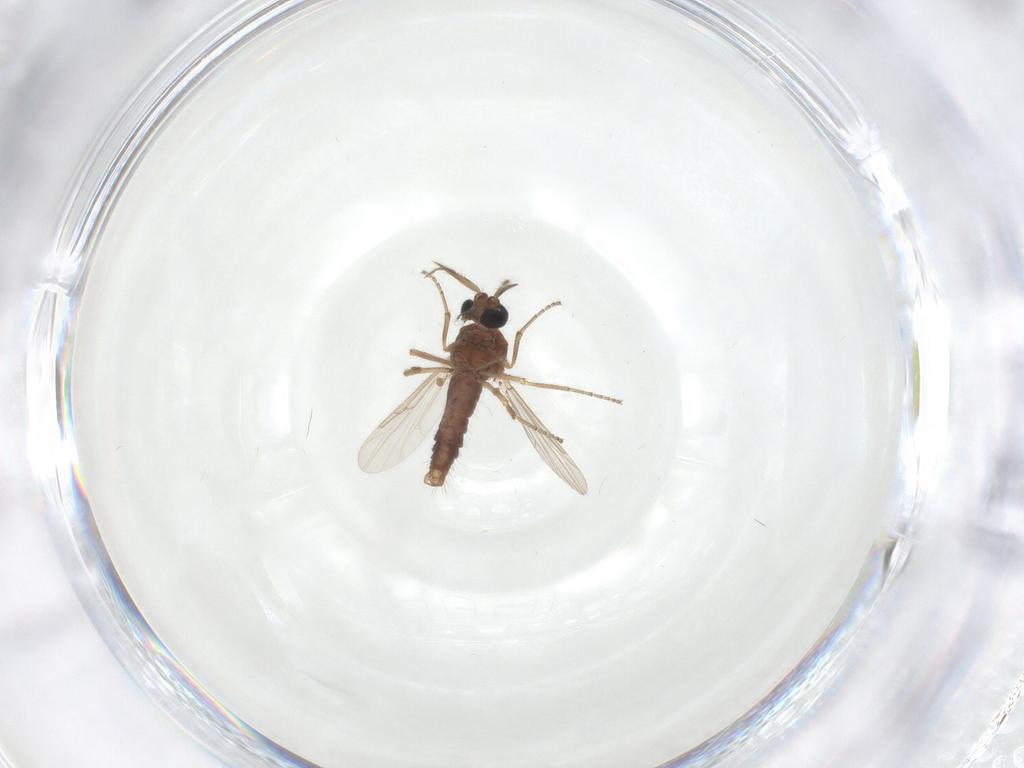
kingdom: Animalia
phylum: Arthropoda
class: Insecta
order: Diptera
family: Ceratopogonidae
